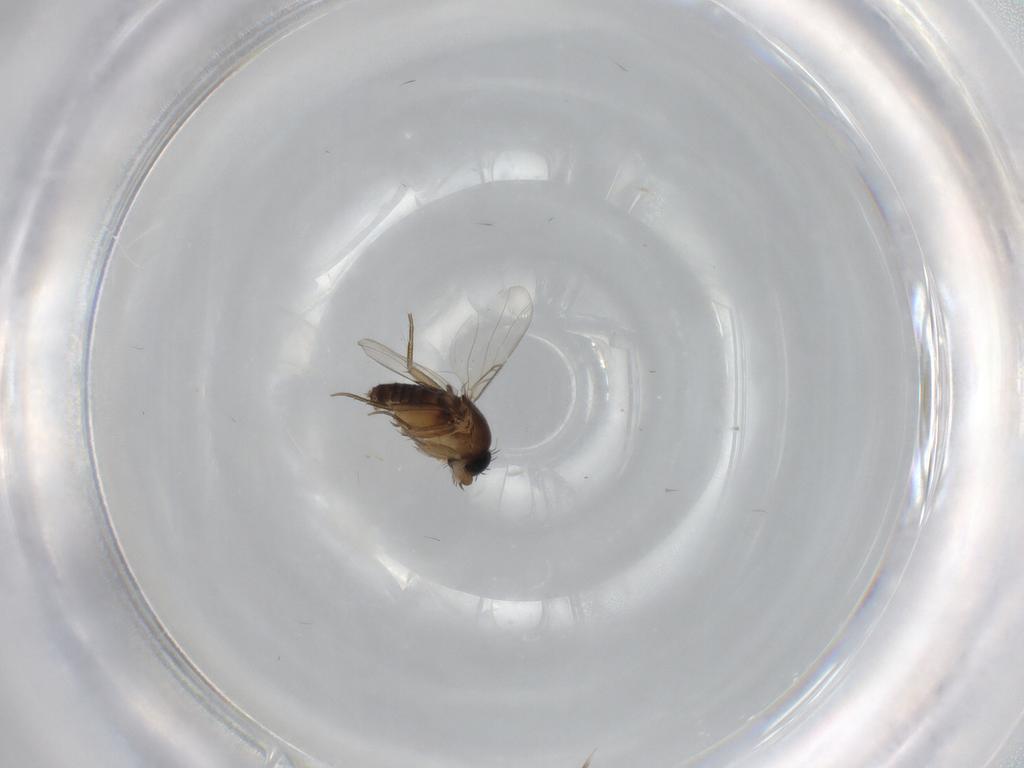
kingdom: Animalia
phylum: Arthropoda
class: Insecta
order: Diptera
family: Phoridae
